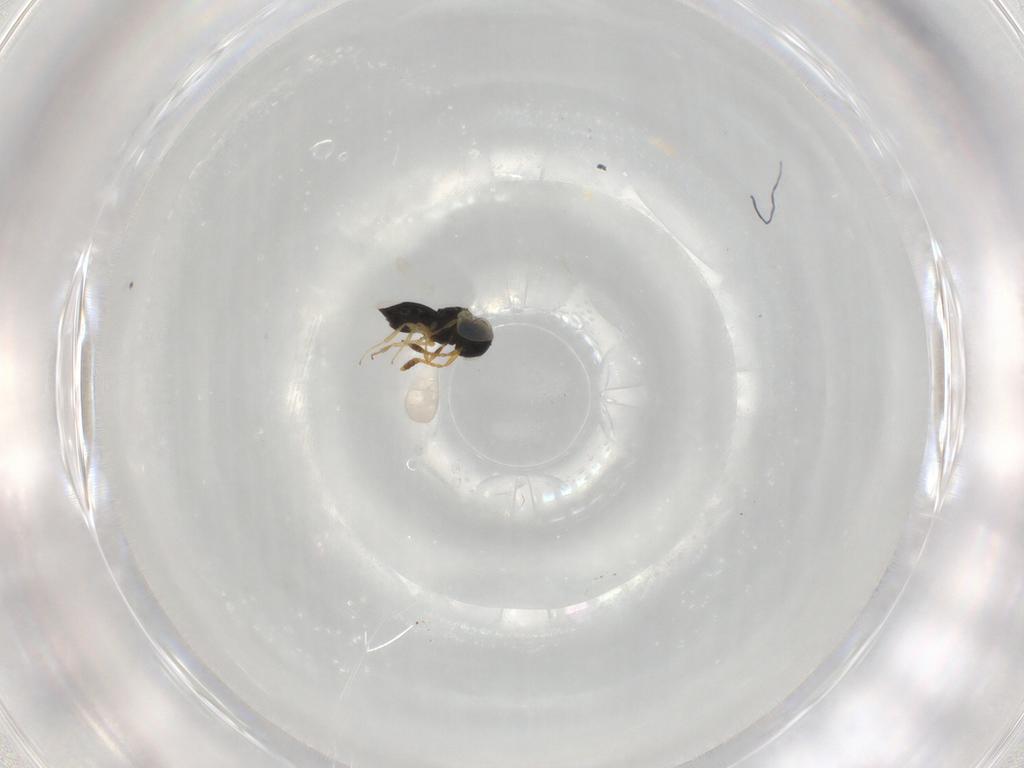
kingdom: Animalia
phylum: Arthropoda
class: Insecta
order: Hymenoptera
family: Scelionidae
